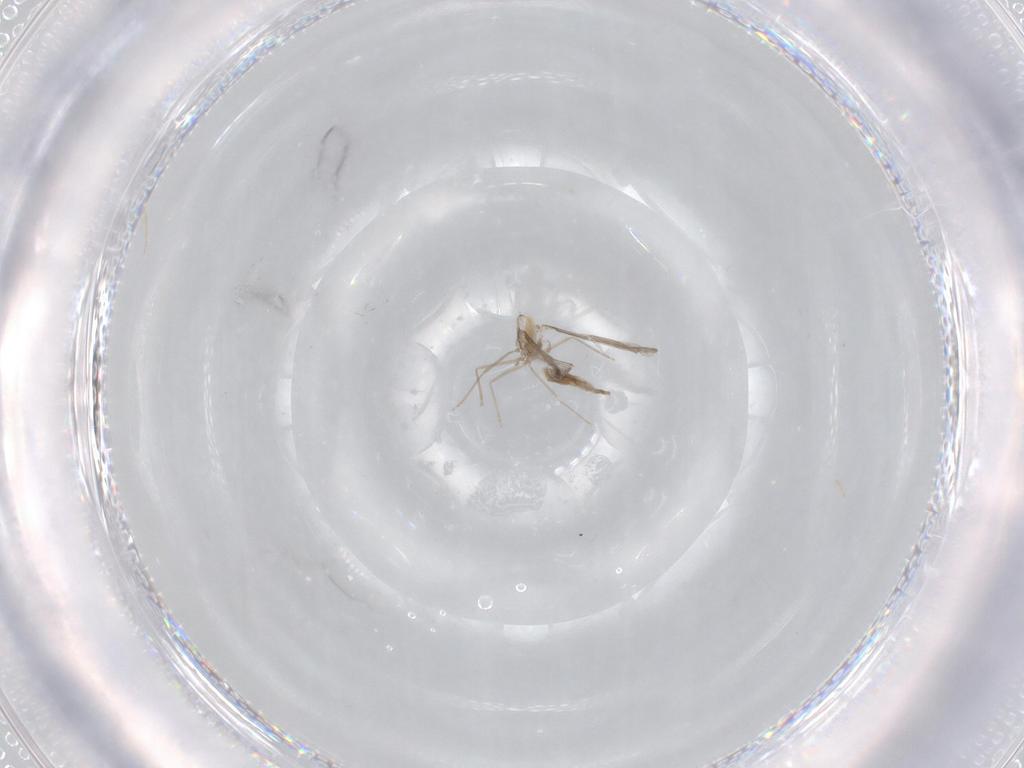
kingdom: Animalia
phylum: Arthropoda
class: Insecta
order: Diptera
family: Cecidomyiidae
